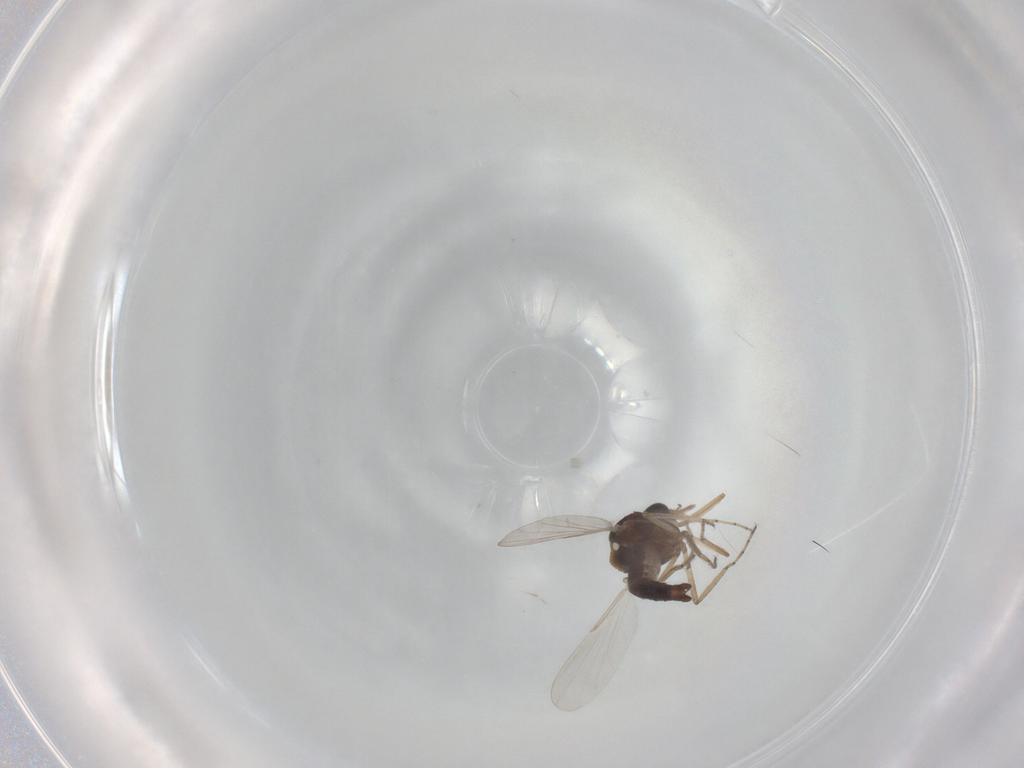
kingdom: Animalia
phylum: Arthropoda
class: Insecta
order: Diptera
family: Ceratopogonidae
